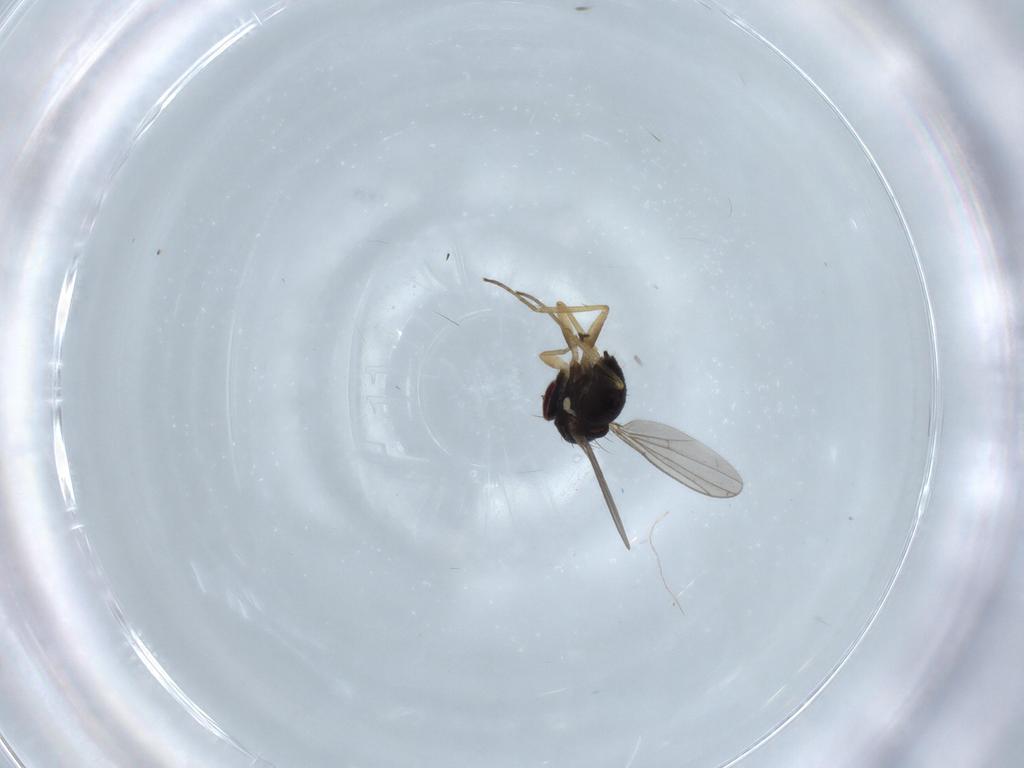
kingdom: Animalia
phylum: Arthropoda
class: Insecta
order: Diptera
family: Dolichopodidae
